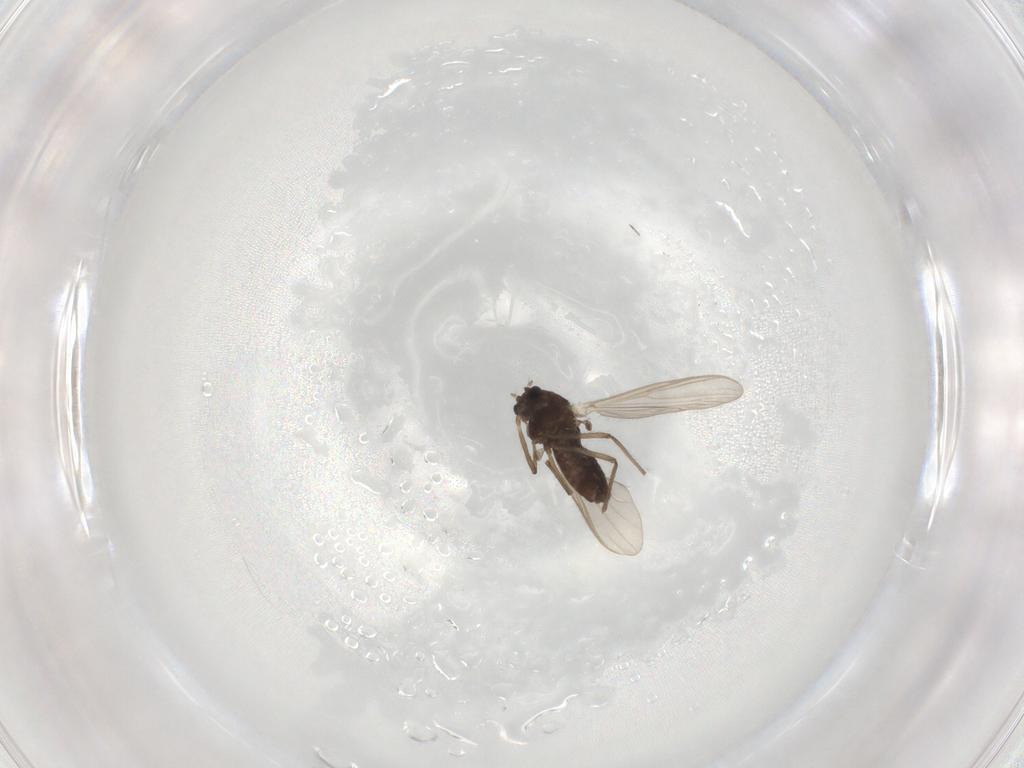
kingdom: Animalia
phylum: Arthropoda
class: Insecta
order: Diptera
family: Chironomidae
